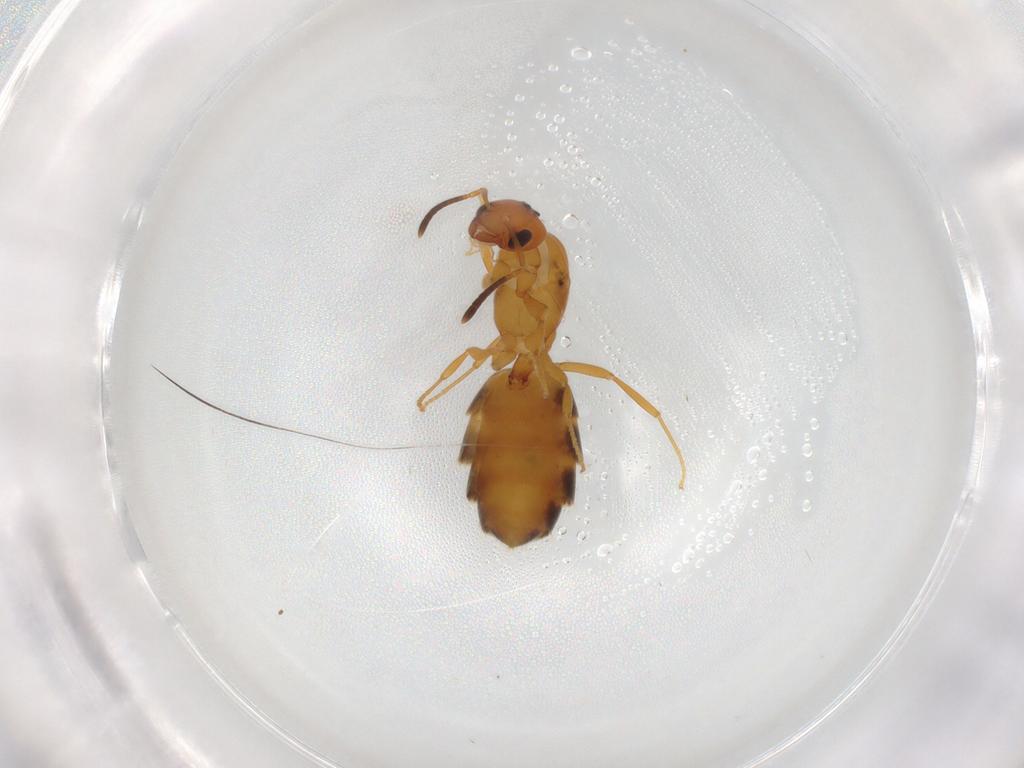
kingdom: Animalia
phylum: Arthropoda
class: Insecta
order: Hymenoptera
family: Formicidae
